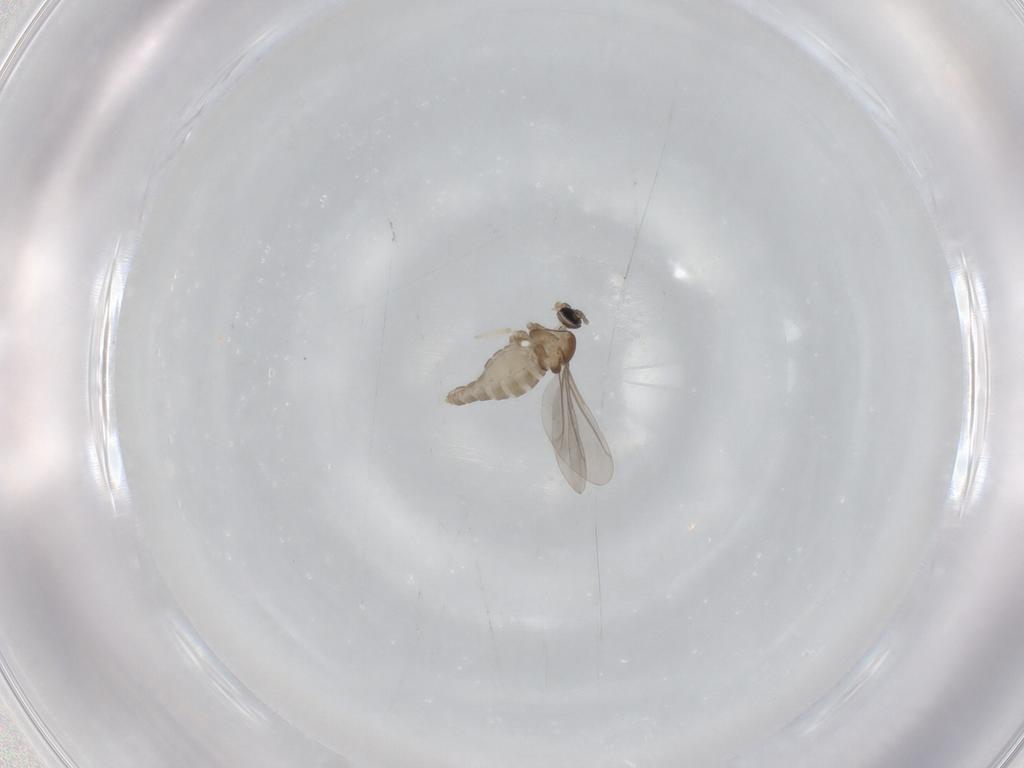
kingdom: Animalia
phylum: Arthropoda
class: Insecta
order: Diptera
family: Cecidomyiidae
